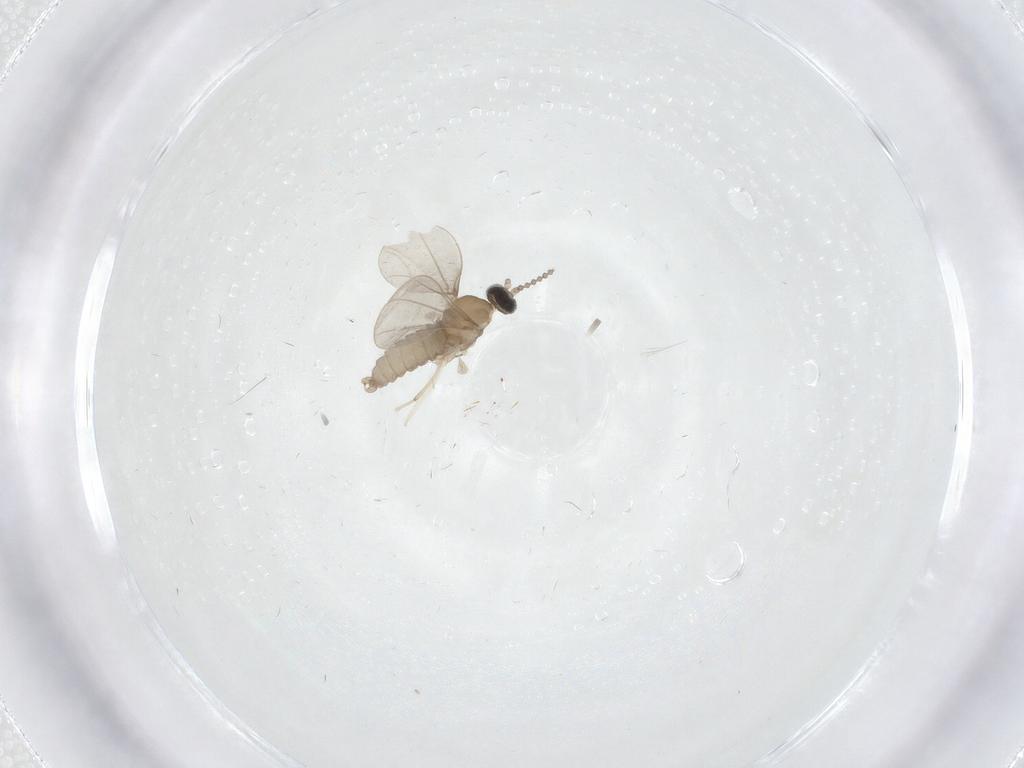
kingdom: Animalia
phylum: Arthropoda
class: Insecta
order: Diptera
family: Chironomidae
